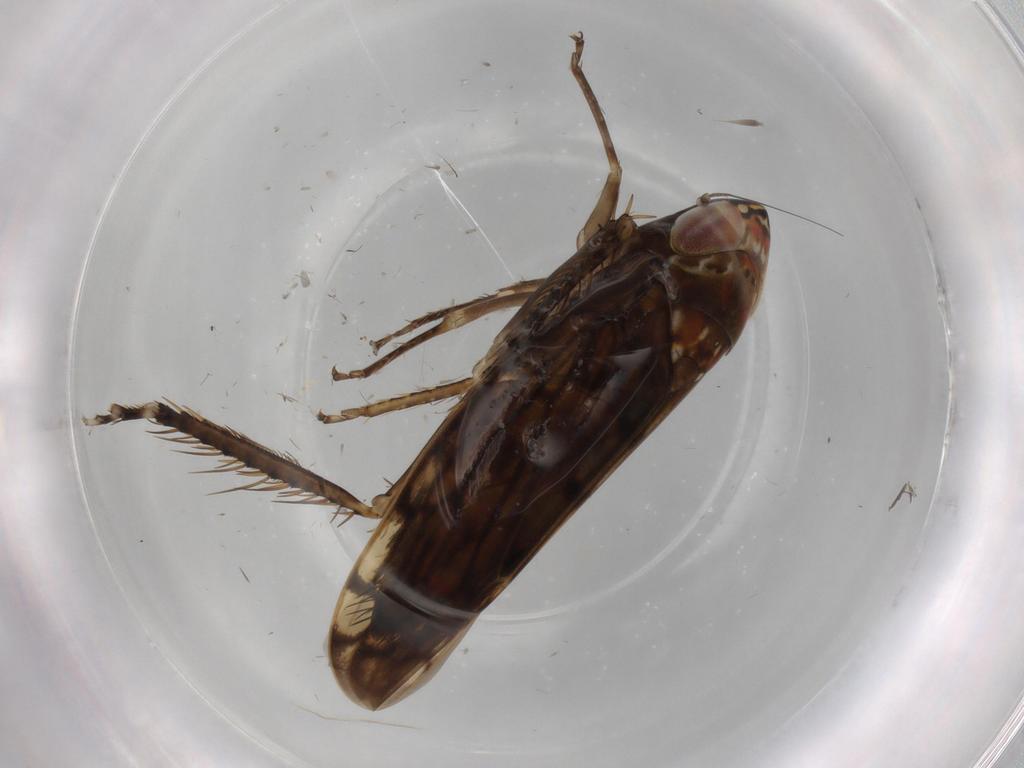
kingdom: Animalia
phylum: Arthropoda
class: Insecta
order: Hemiptera
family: Cicadellidae
